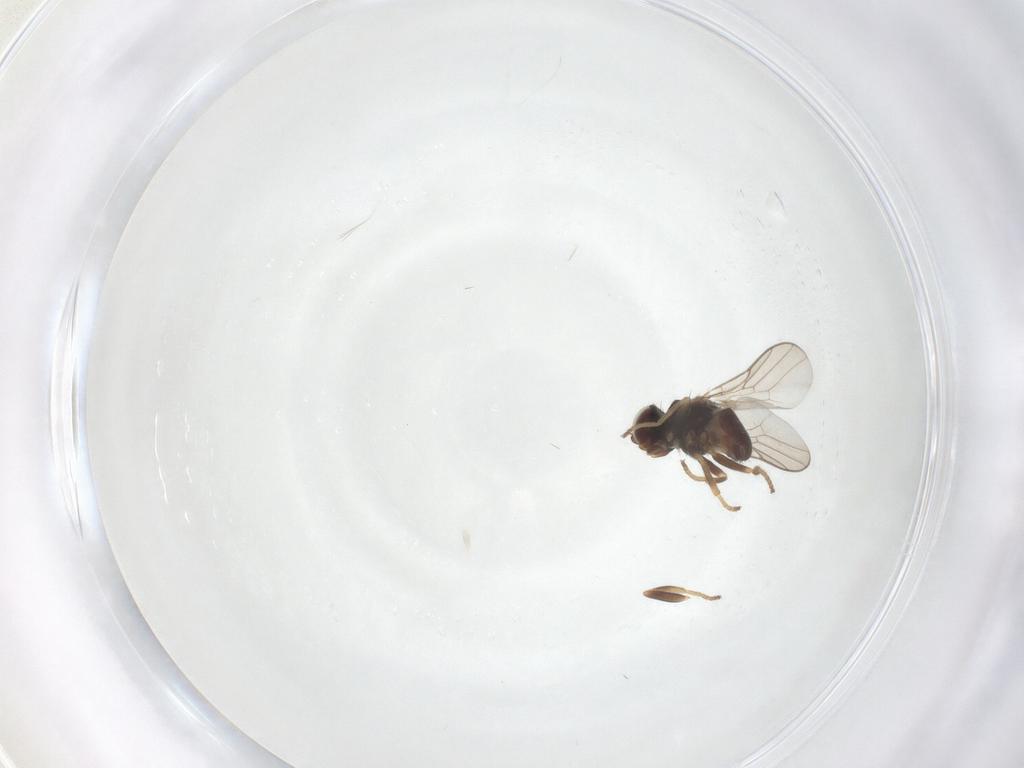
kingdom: Animalia
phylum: Arthropoda
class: Insecta
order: Diptera
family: Chloropidae
